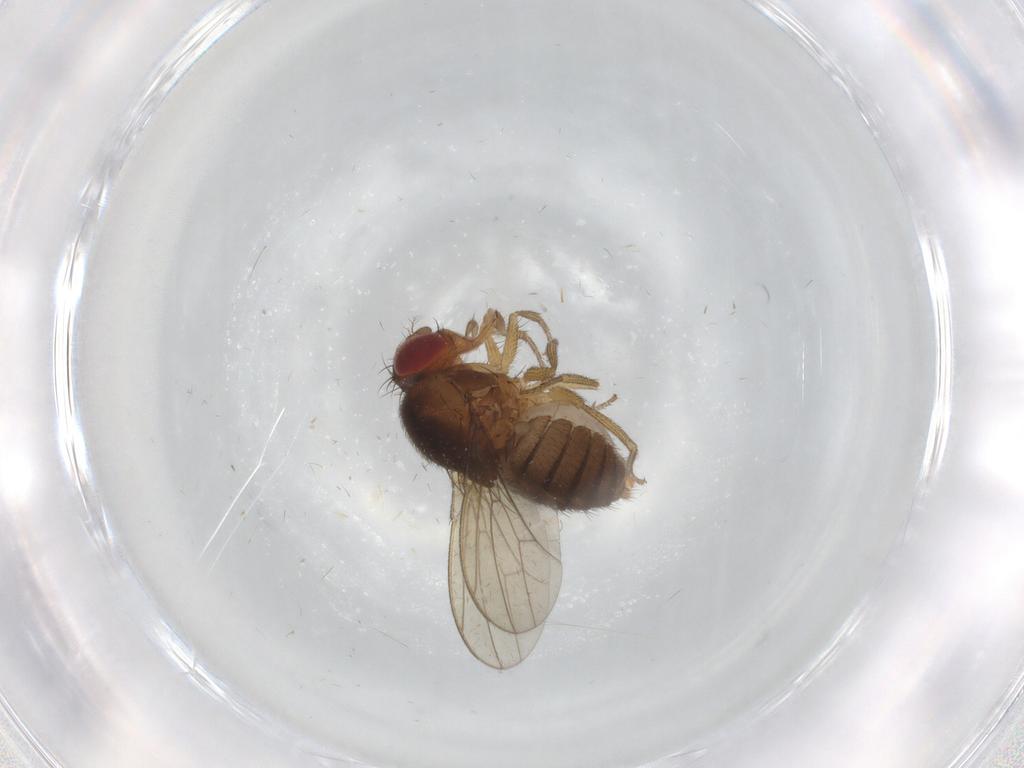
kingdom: Animalia
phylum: Arthropoda
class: Insecta
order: Diptera
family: Drosophilidae
